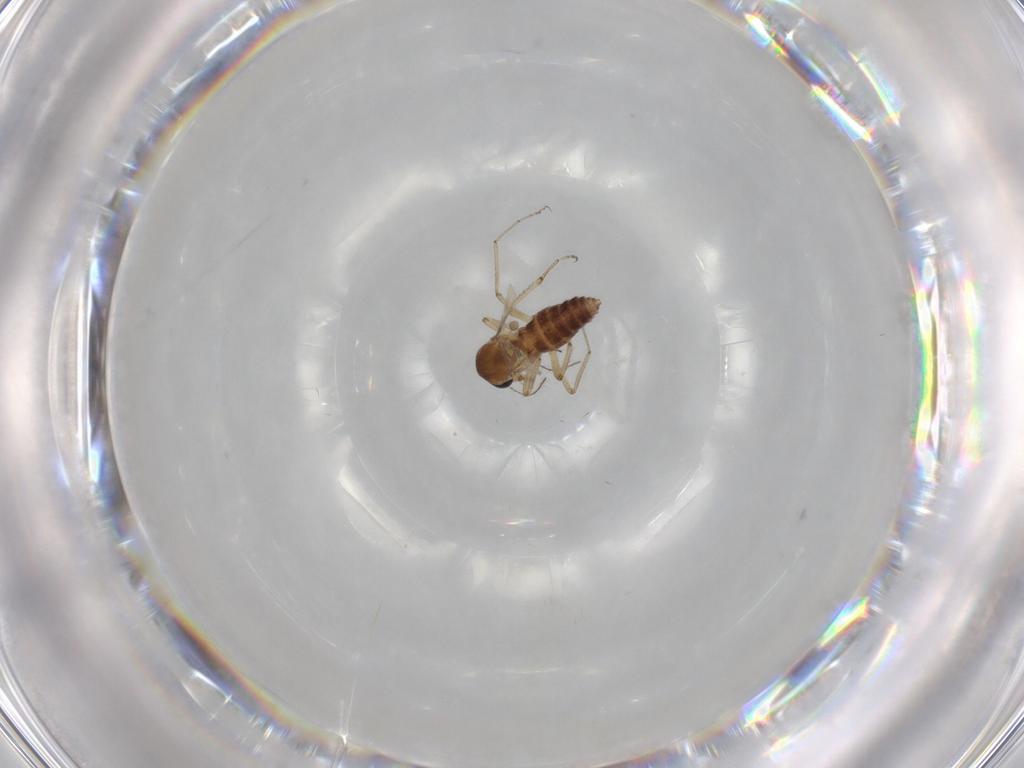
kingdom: Animalia
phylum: Arthropoda
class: Insecta
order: Diptera
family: Ceratopogonidae
